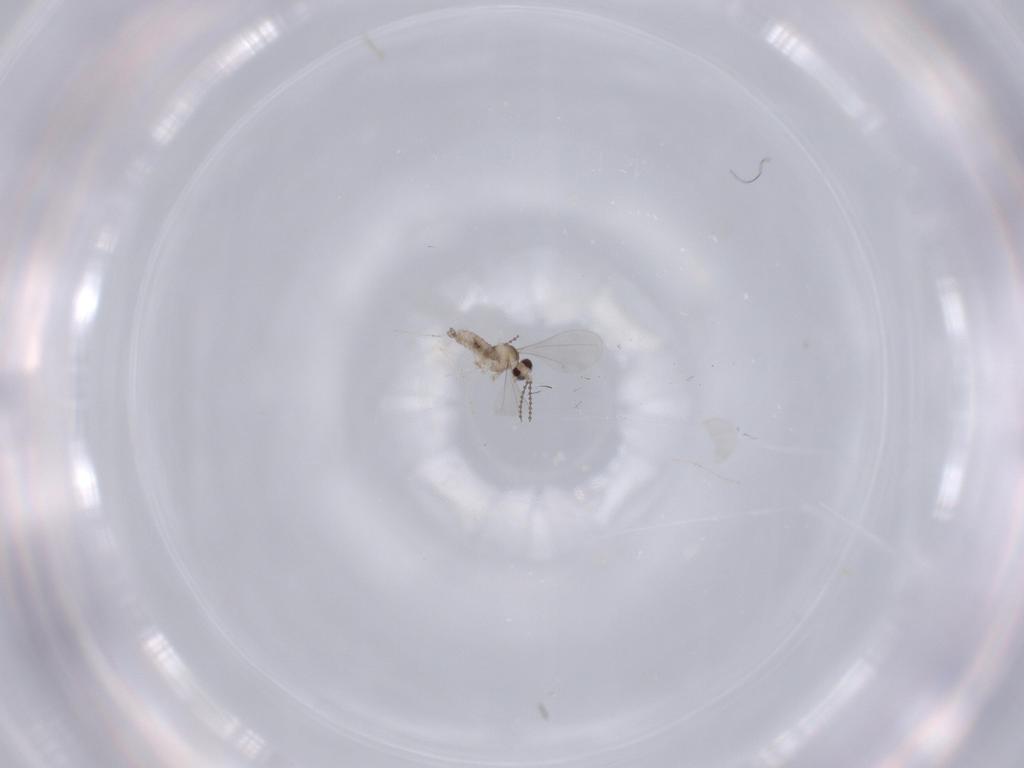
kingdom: Animalia
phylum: Arthropoda
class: Insecta
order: Diptera
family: Cecidomyiidae
